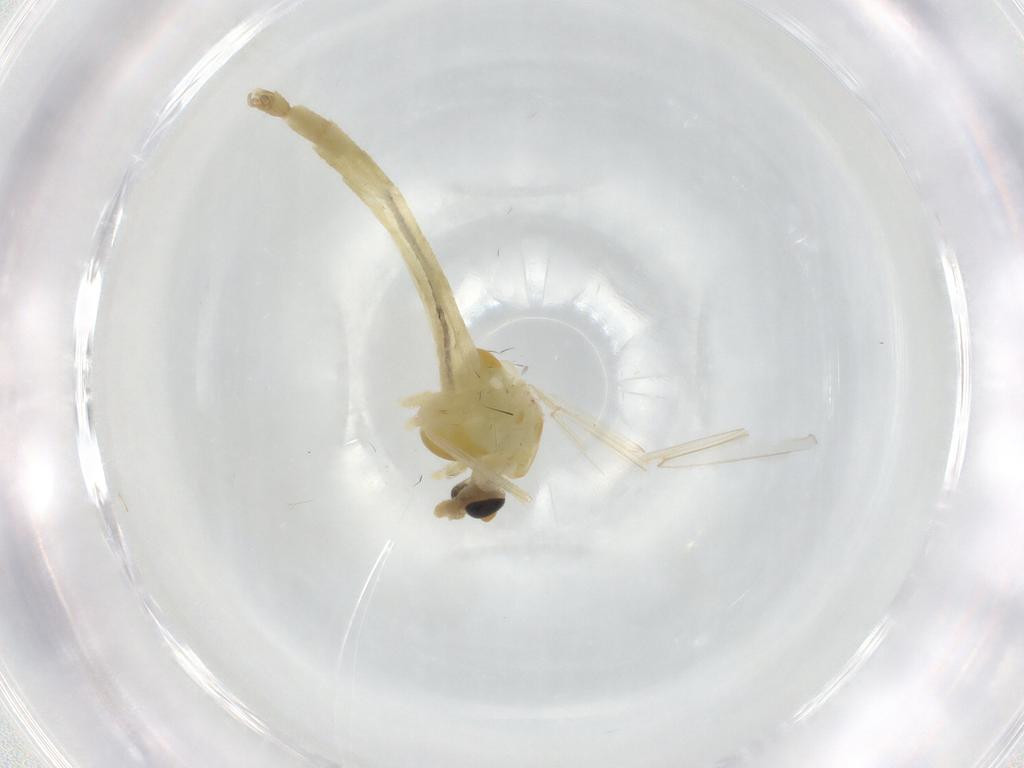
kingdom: Animalia
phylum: Arthropoda
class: Insecta
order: Diptera
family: Chironomidae
